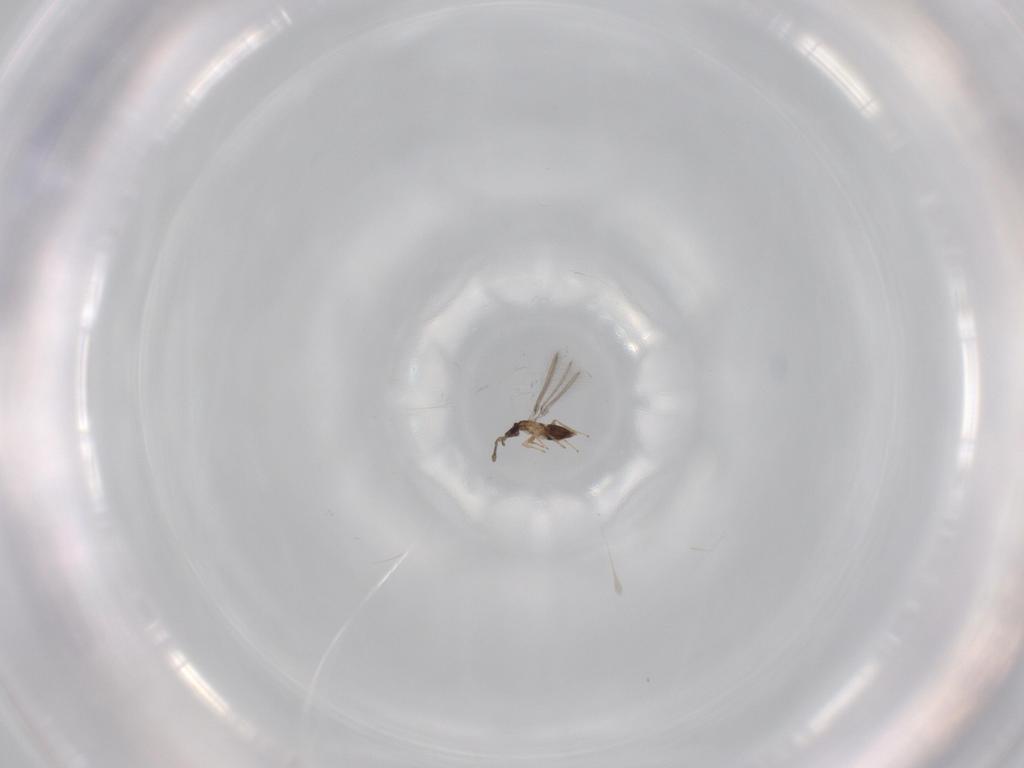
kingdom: Animalia
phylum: Arthropoda
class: Insecta
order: Hymenoptera
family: Mymaridae
